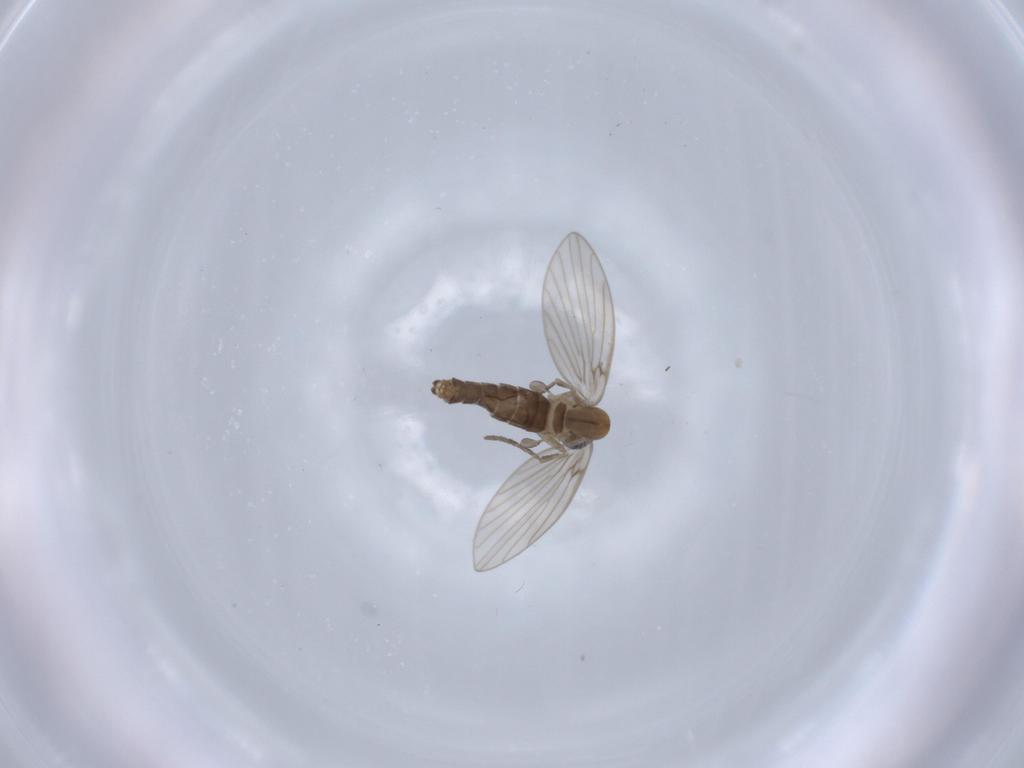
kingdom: Animalia
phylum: Arthropoda
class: Insecta
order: Diptera
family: Psychodidae
